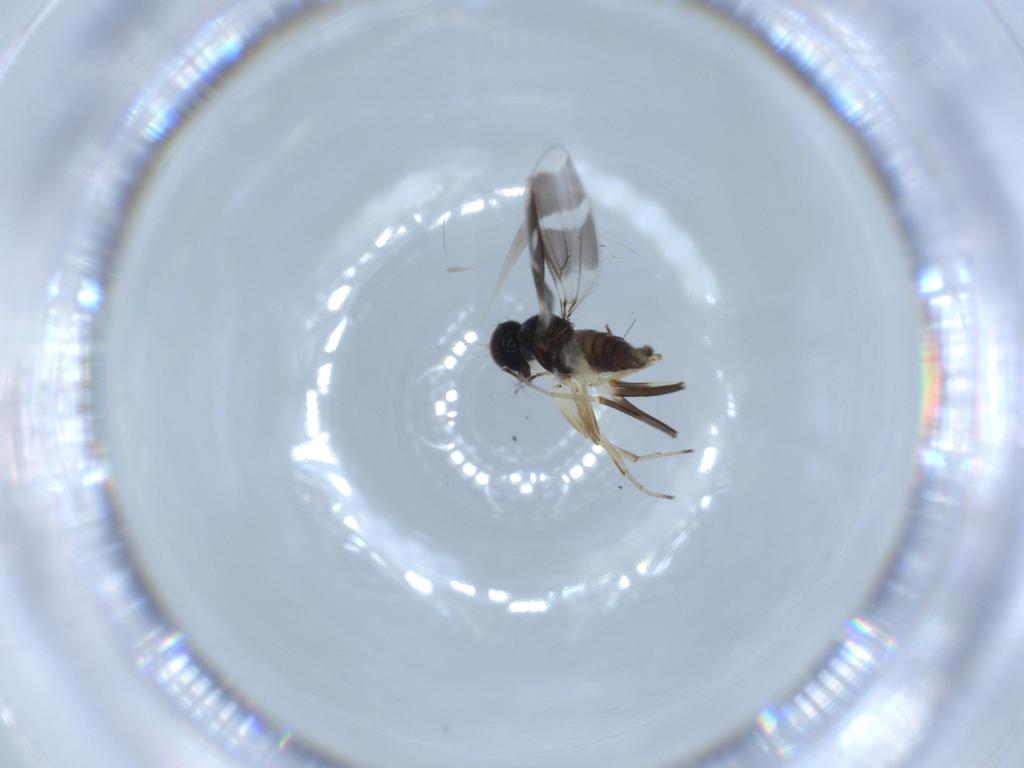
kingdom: Animalia
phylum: Arthropoda
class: Insecta
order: Diptera
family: Hybotidae
